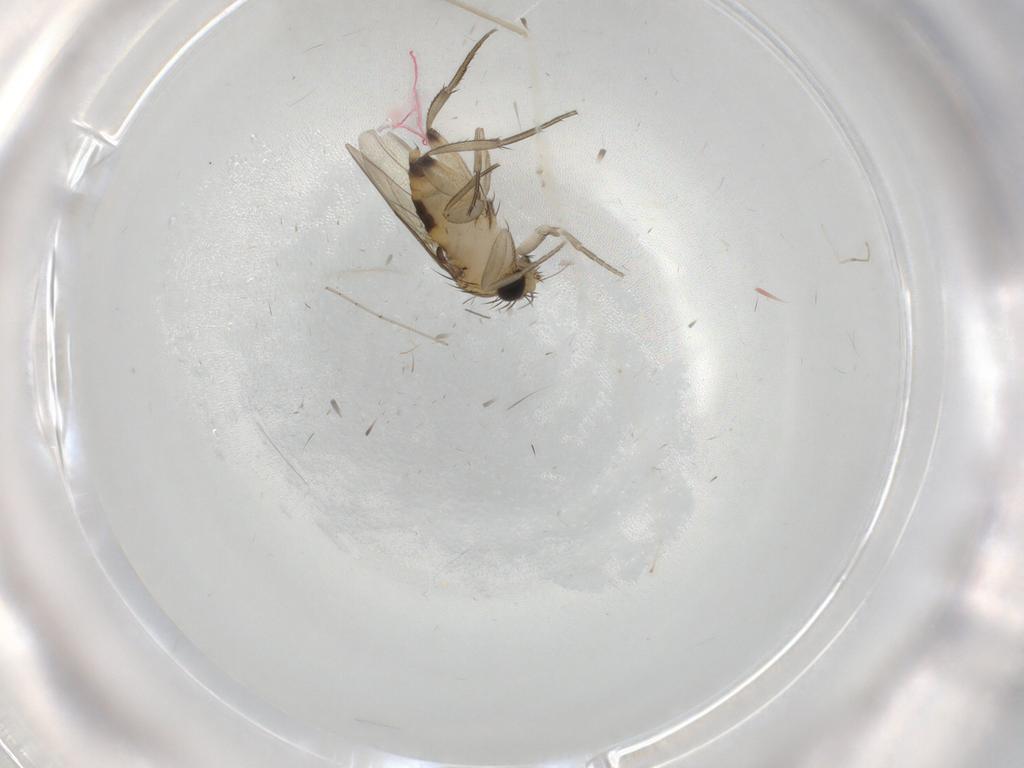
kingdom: Animalia
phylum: Arthropoda
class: Insecta
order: Diptera
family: Phoridae
